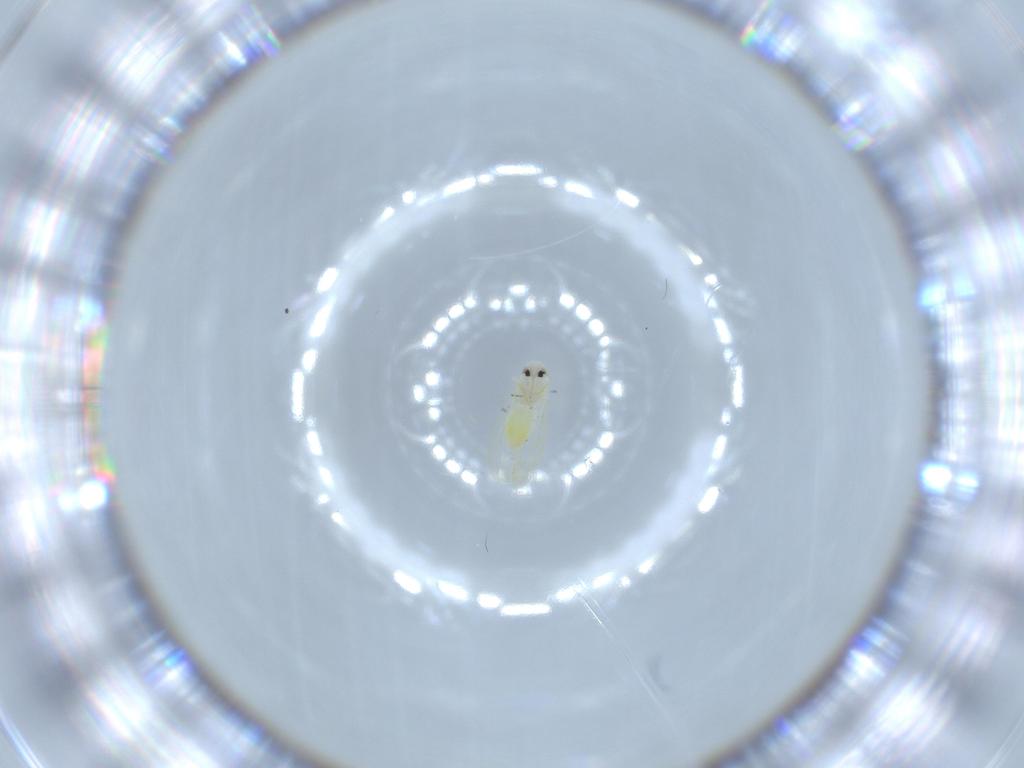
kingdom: Animalia
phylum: Arthropoda
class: Insecta
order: Hemiptera
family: Aleyrodidae
